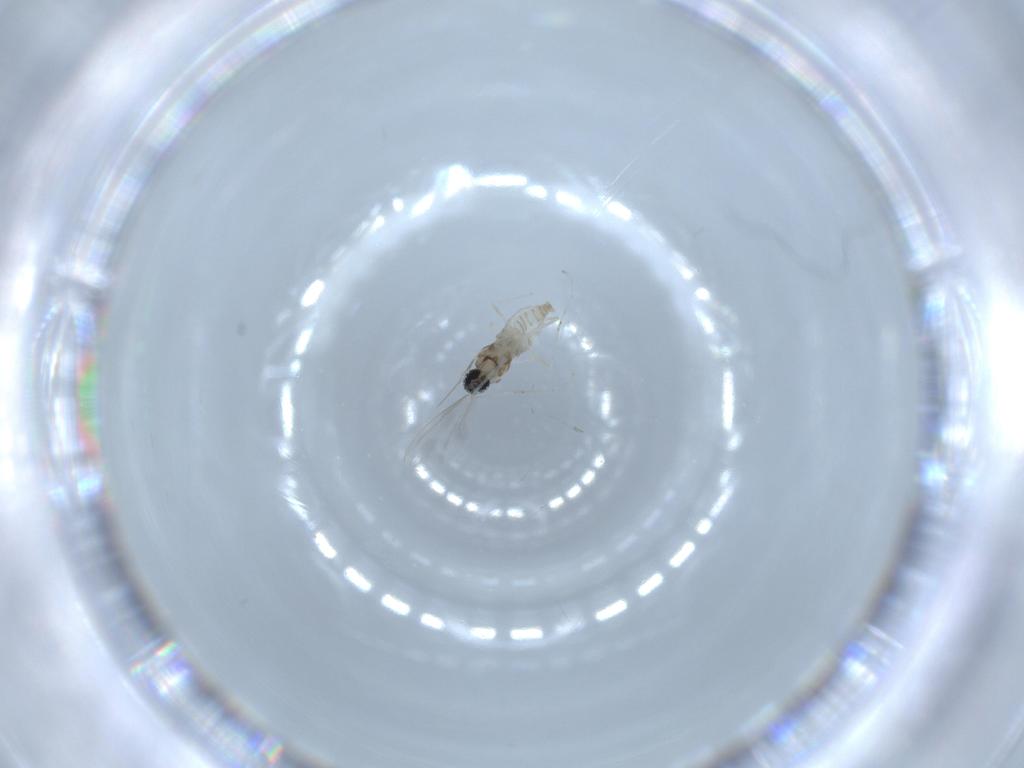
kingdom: Animalia
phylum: Arthropoda
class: Insecta
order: Diptera
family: Cecidomyiidae
